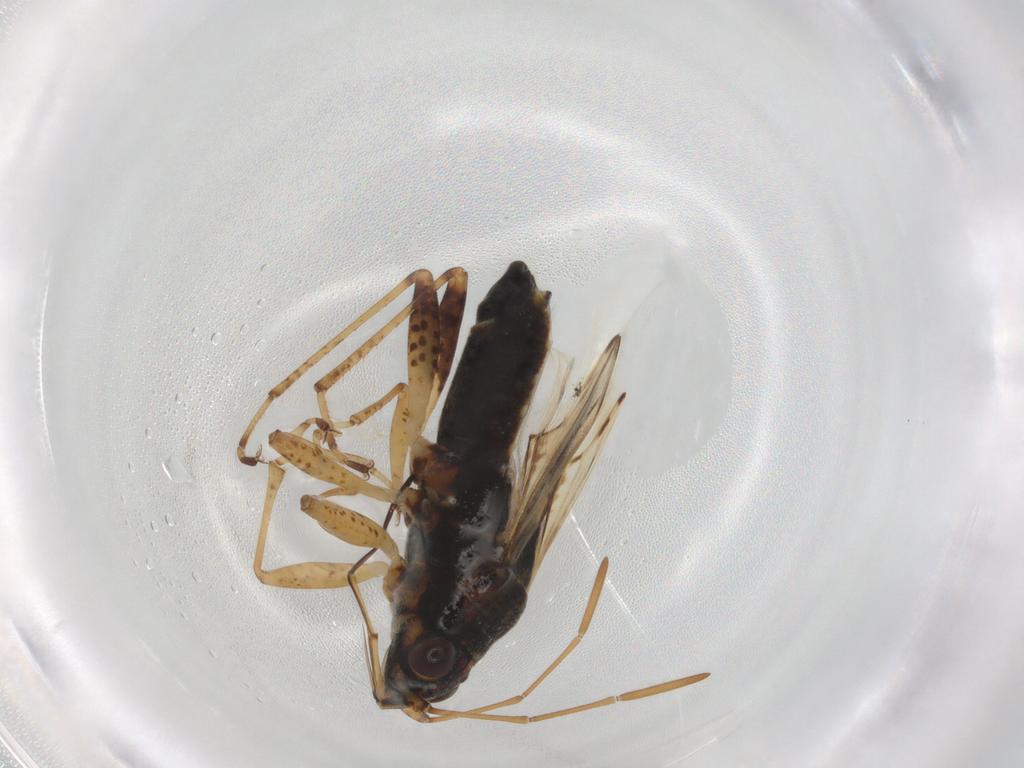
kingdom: Animalia
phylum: Arthropoda
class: Insecta
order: Hemiptera
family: Lygaeidae
